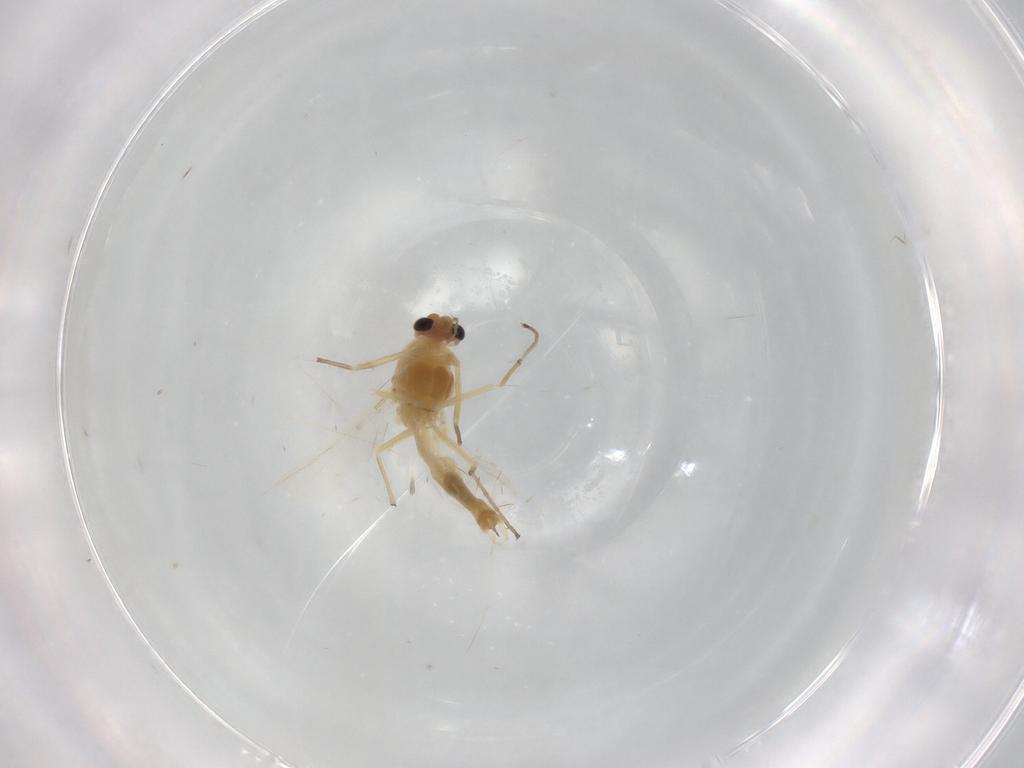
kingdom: Animalia
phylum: Arthropoda
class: Insecta
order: Diptera
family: Chironomidae
